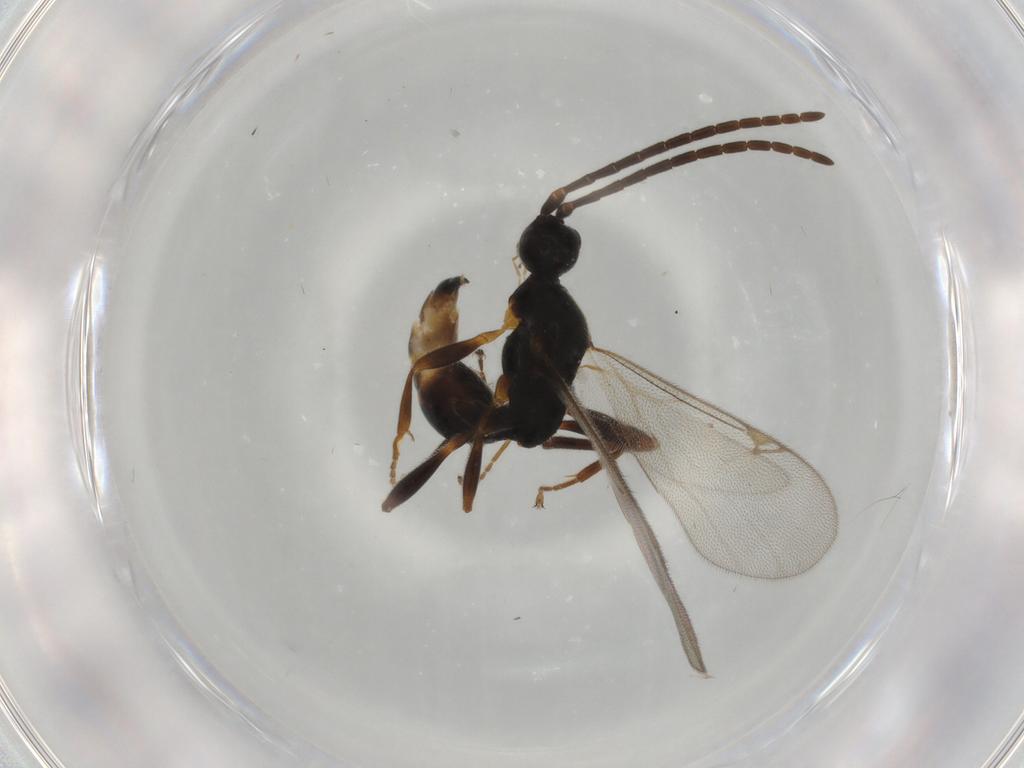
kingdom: Animalia
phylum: Arthropoda
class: Insecta
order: Hymenoptera
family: Proctotrupidae
